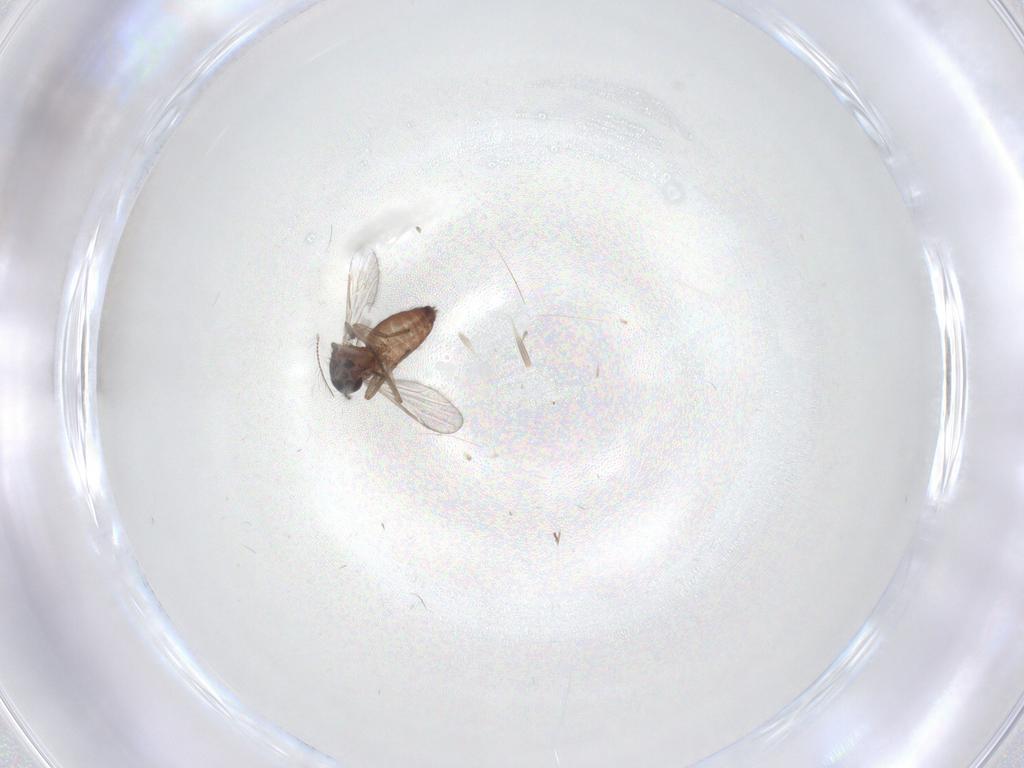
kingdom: Animalia
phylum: Arthropoda
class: Insecta
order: Diptera
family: Ceratopogonidae
